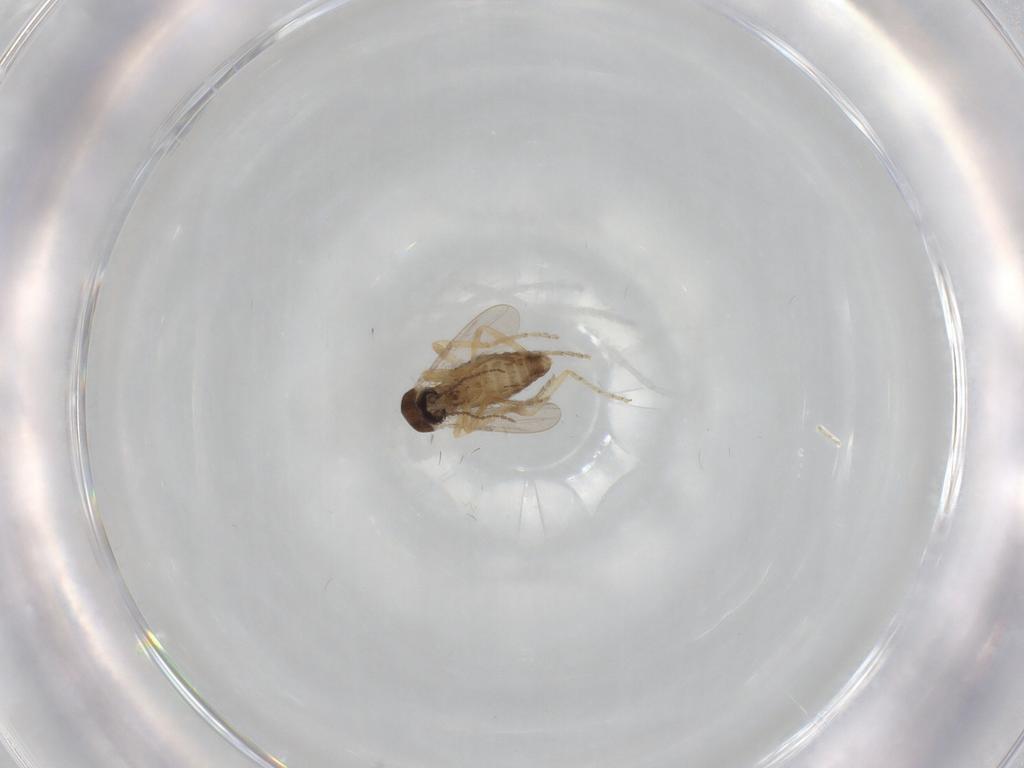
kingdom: Animalia
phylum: Arthropoda
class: Insecta
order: Diptera
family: Ceratopogonidae
